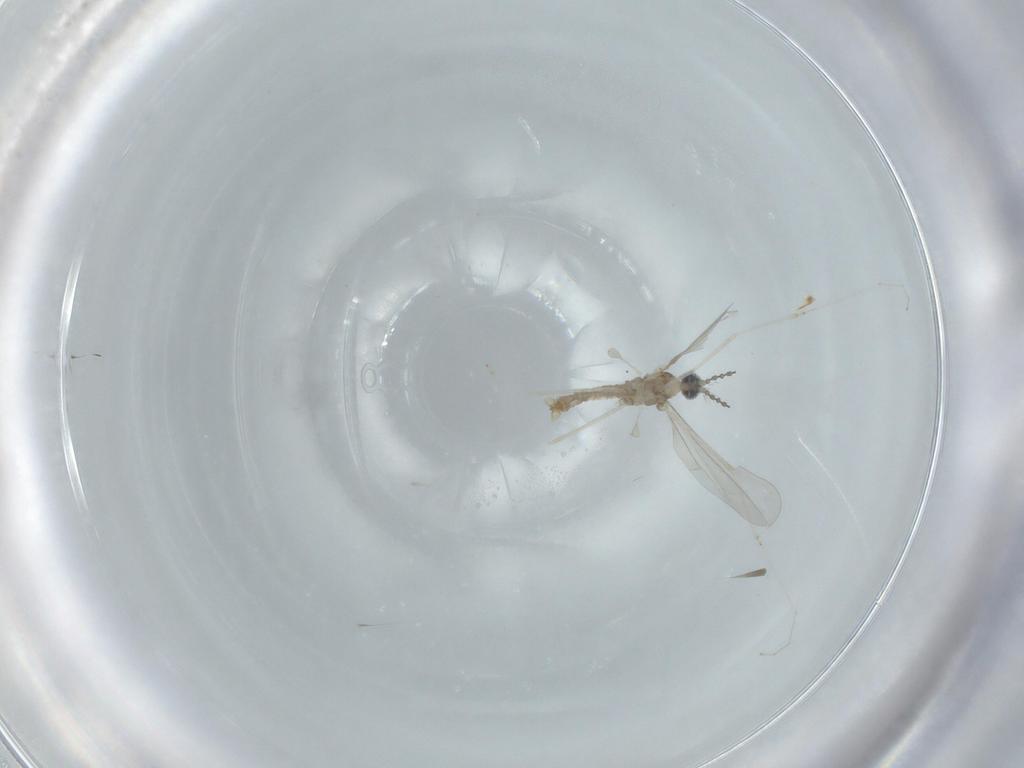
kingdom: Animalia
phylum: Arthropoda
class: Insecta
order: Diptera
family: Cecidomyiidae
